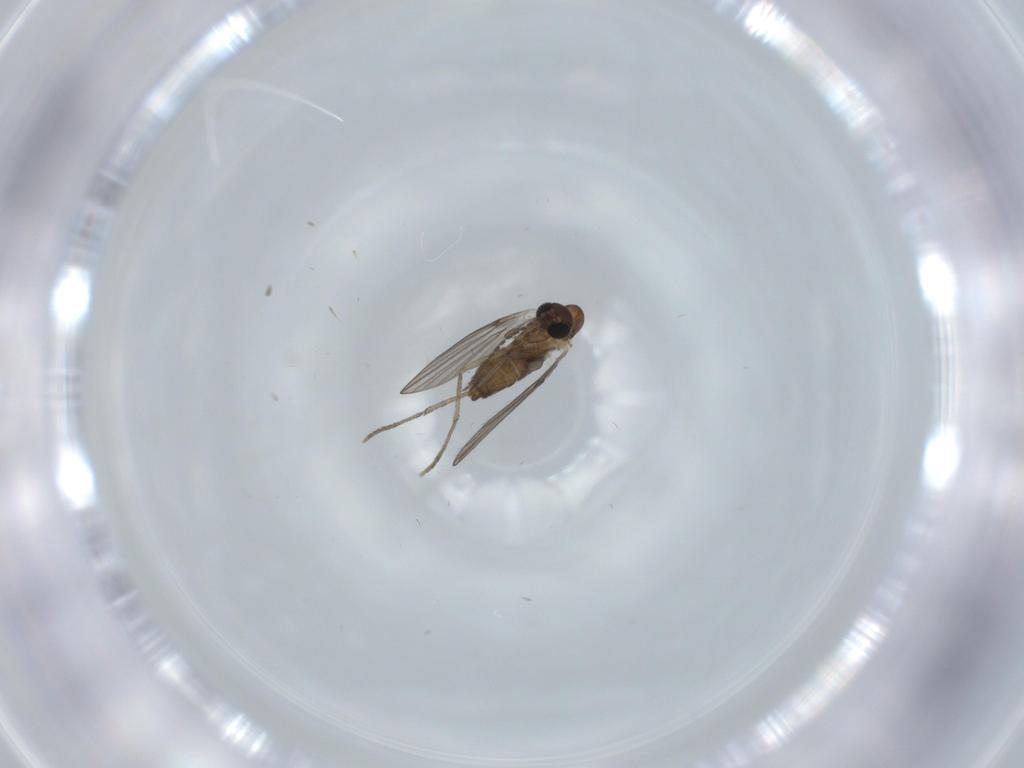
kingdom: Animalia
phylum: Arthropoda
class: Insecta
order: Diptera
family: Psychodidae
